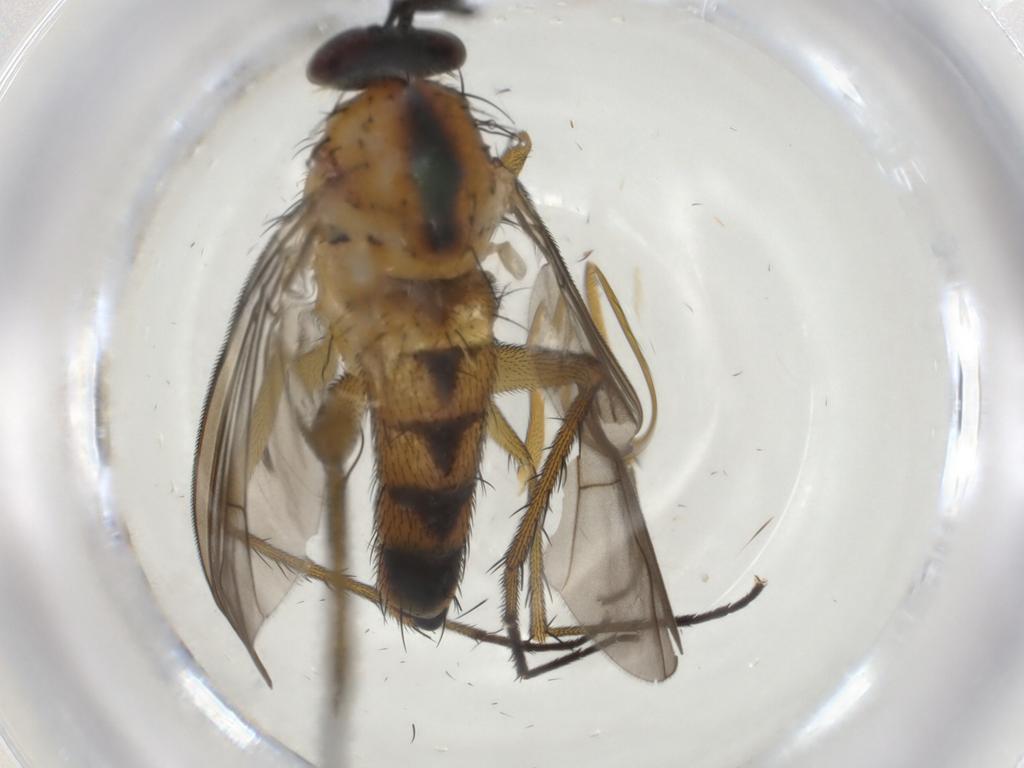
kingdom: Animalia
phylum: Arthropoda
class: Insecta
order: Diptera
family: Dolichopodidae
